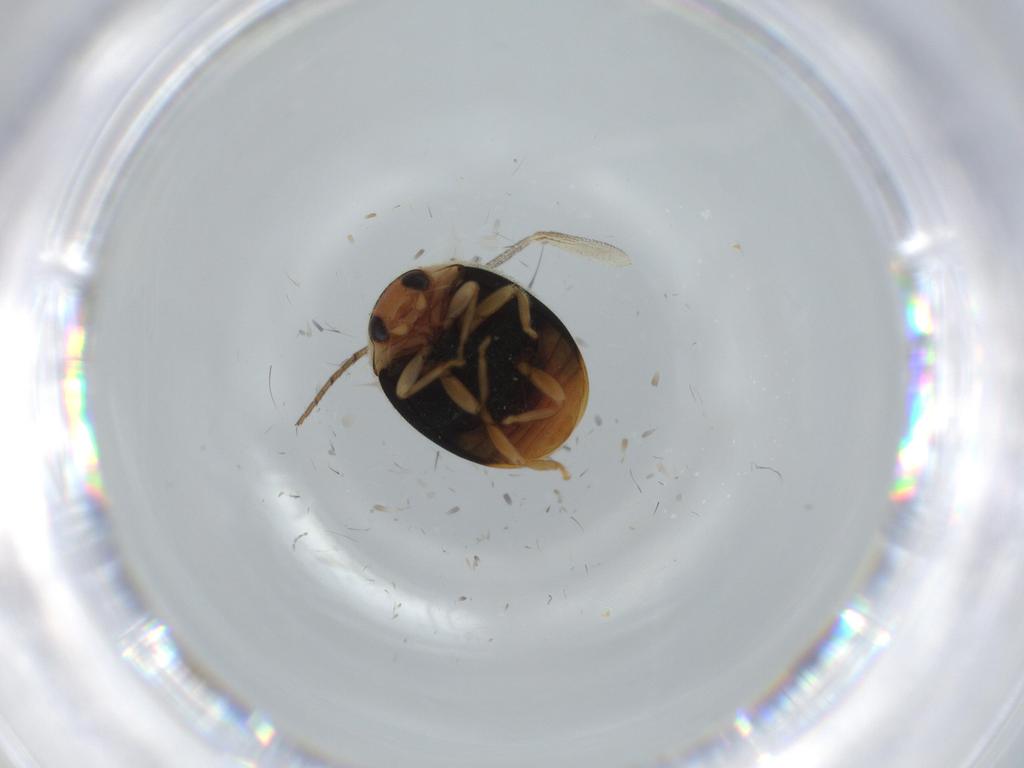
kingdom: Animalia
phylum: Arthropoda
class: Insecta
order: Coleoptera
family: Coccinellidae
